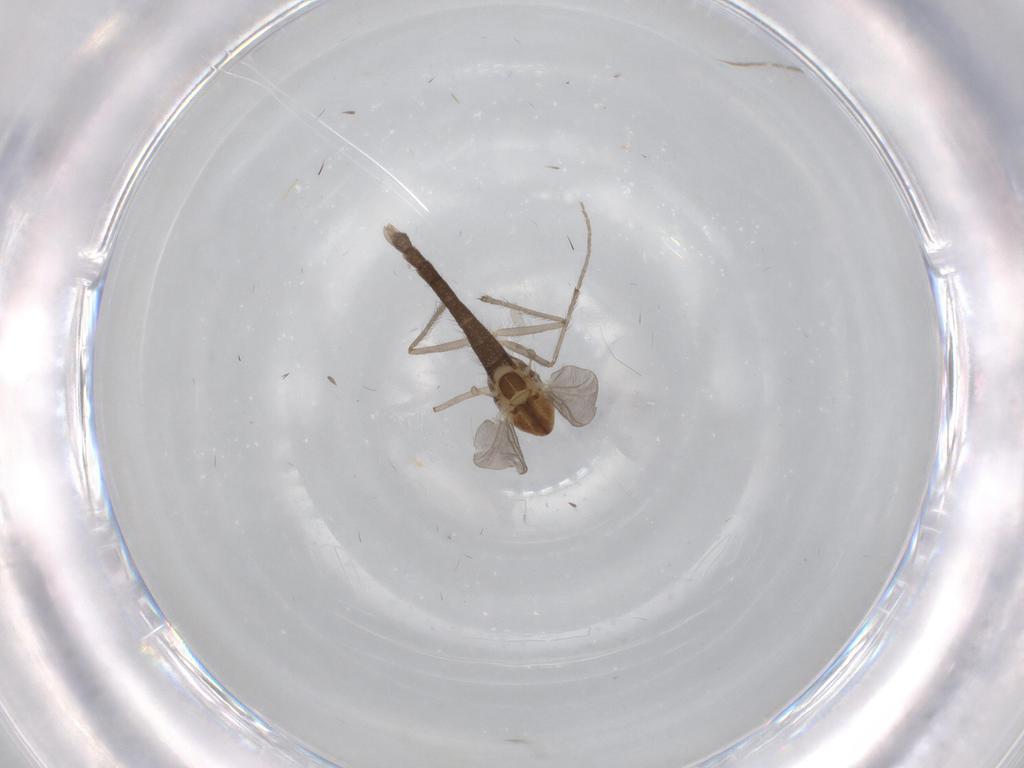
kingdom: Animalia
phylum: Arthropoda
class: Insecta
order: Diptera
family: Chironomidae
